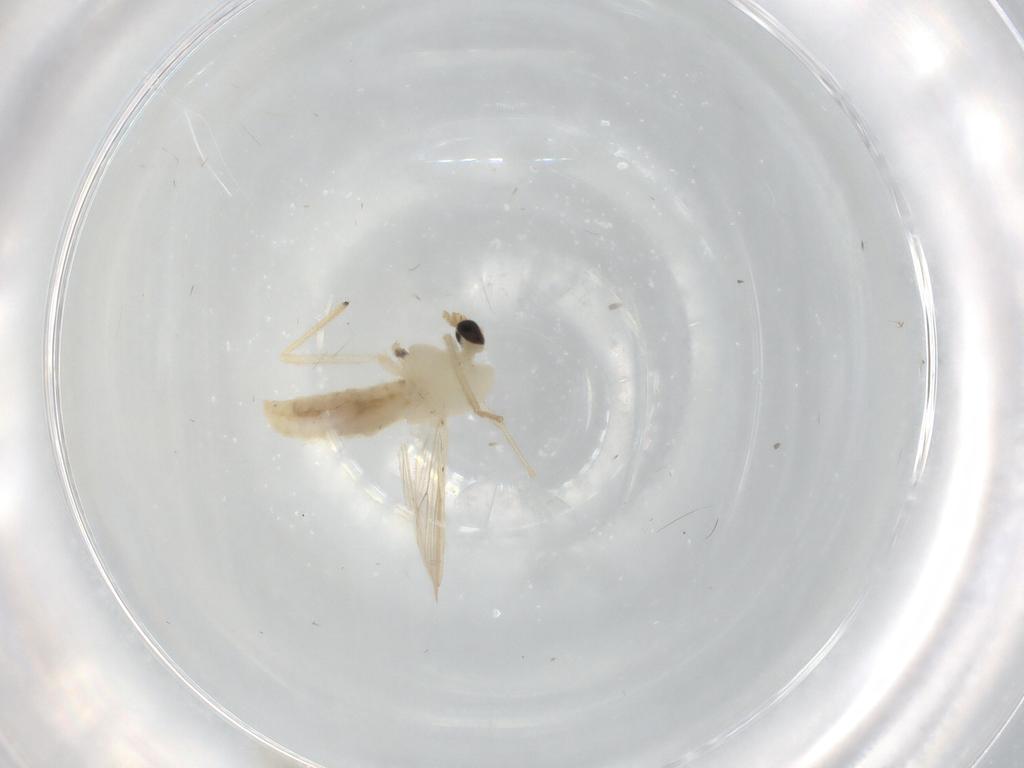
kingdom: Animalia
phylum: Arthropoda
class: Insecta
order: Diptera
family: Chironomidae
